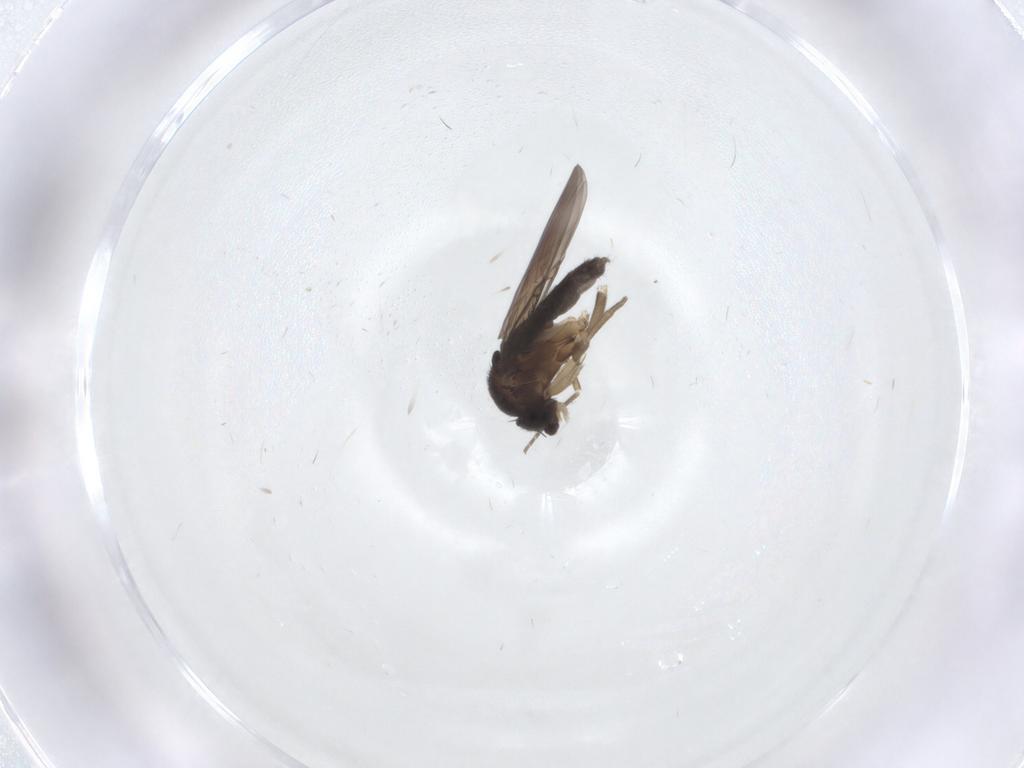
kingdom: Animalia
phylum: Arthropoda
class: Insecta
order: Diptera
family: Phoridae
